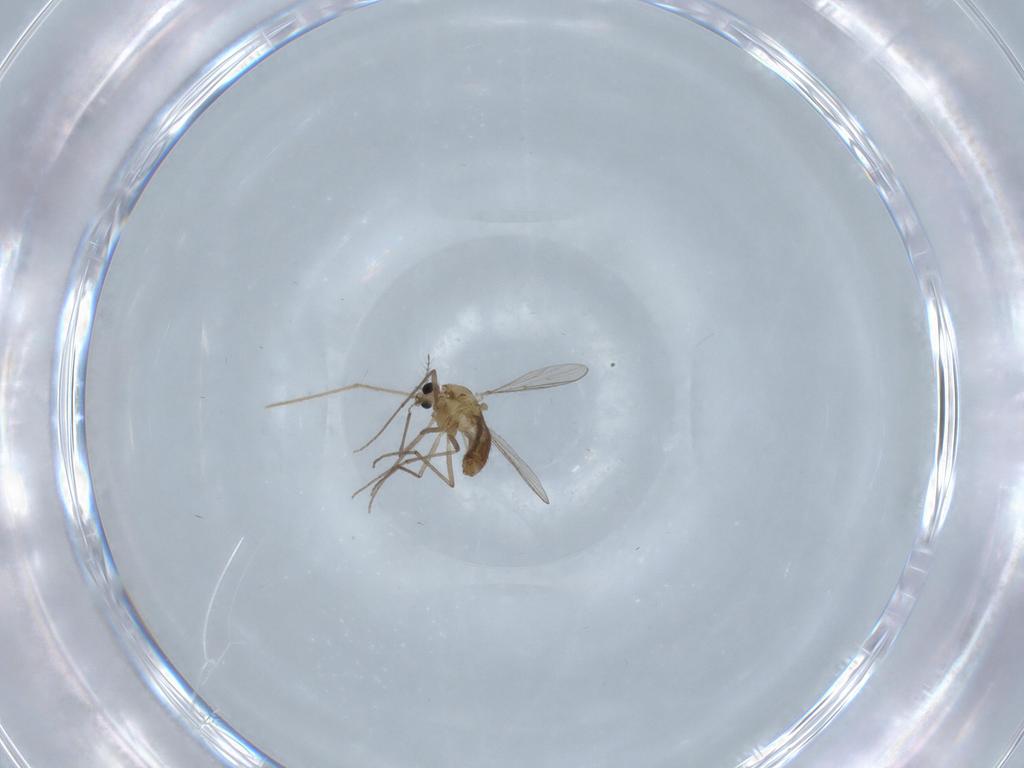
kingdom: Animalia
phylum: Arthropoda
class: Insecta
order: Diptera
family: Chironomidae
